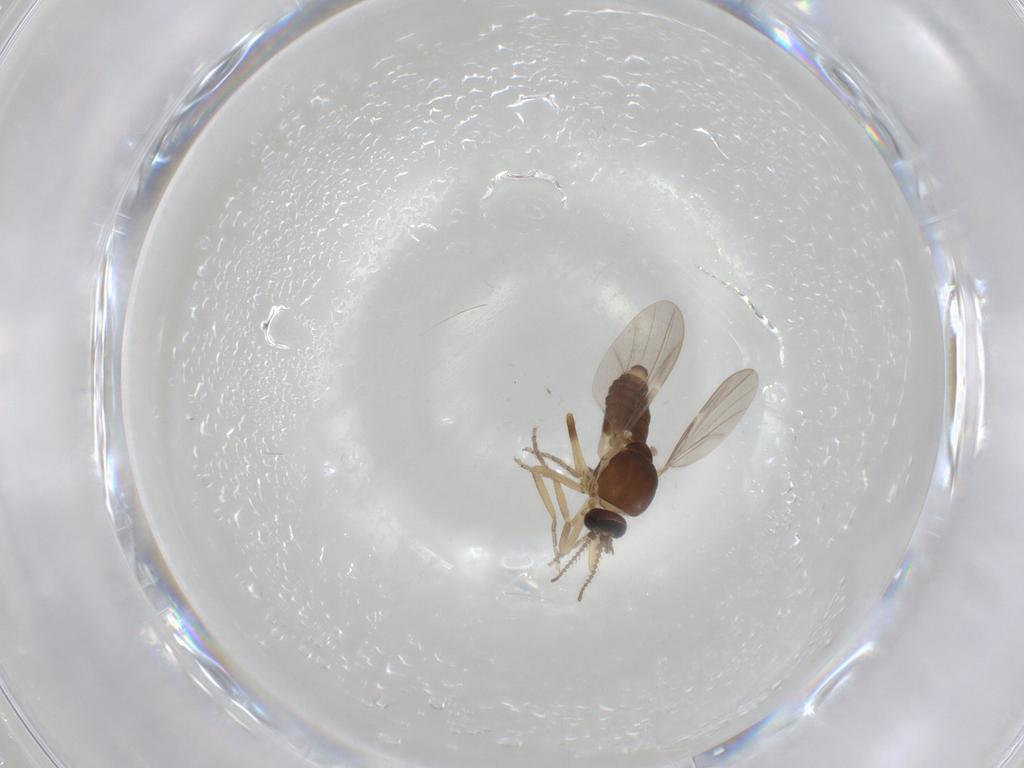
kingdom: Animalia
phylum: Arthropoda
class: Insecta
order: Diptera
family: Ceratopogonidae
